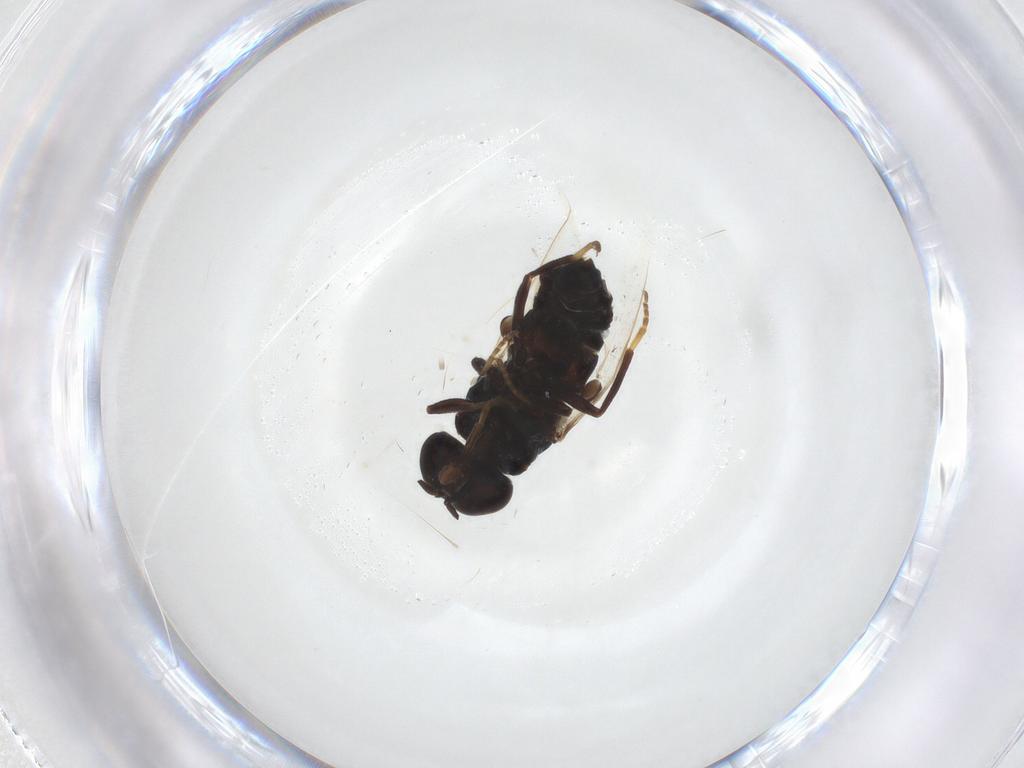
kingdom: Animalia
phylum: Arthropoda
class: Insecta
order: Diptera
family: Scenopinidae
